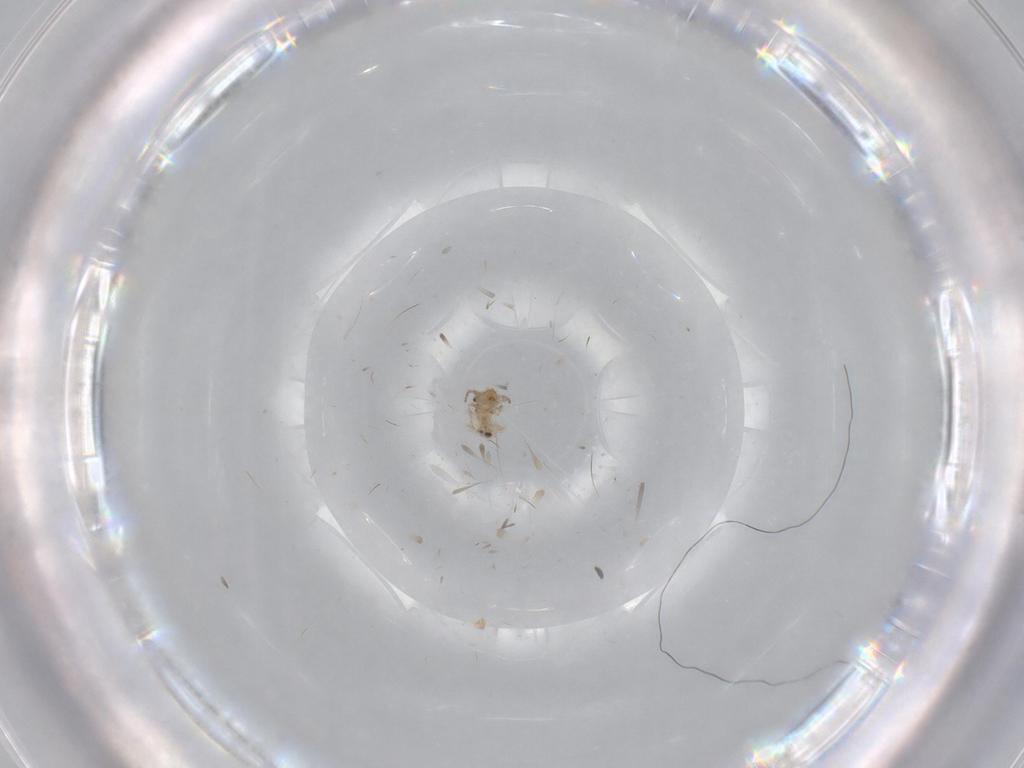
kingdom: Animalia
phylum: Arthropoda
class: Insecta
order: Psocodea
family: Lepidopsocidae
